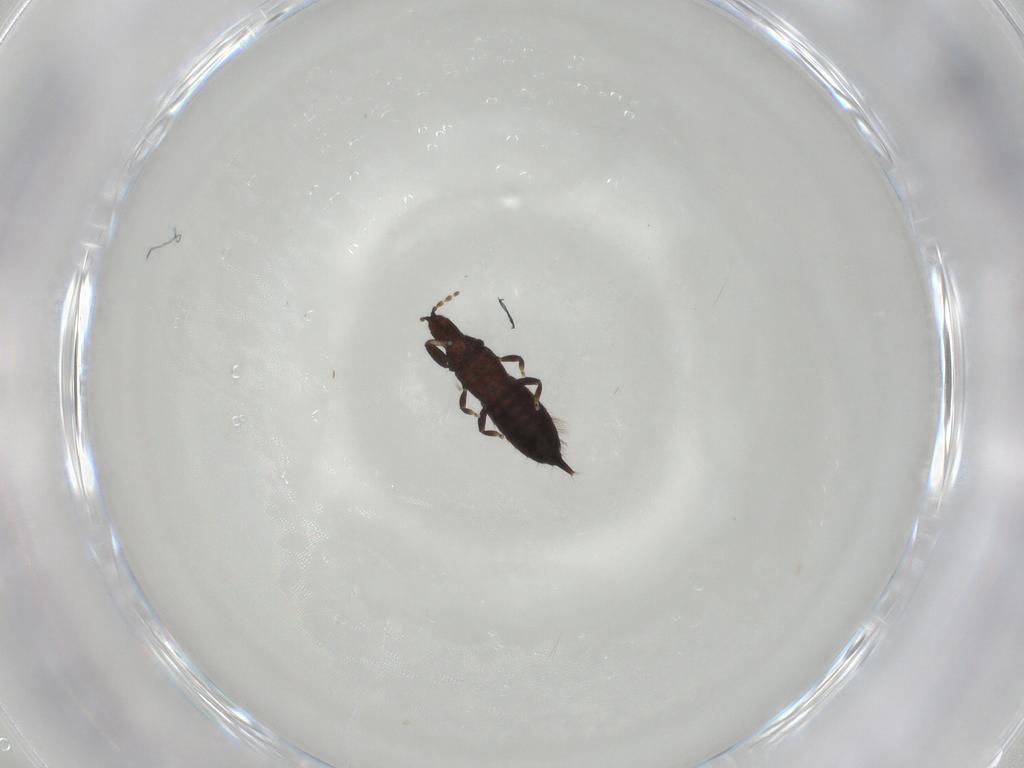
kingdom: Animalia
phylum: Arthropoda
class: Insecta
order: Thysanoptera
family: Phlaeothripidae
